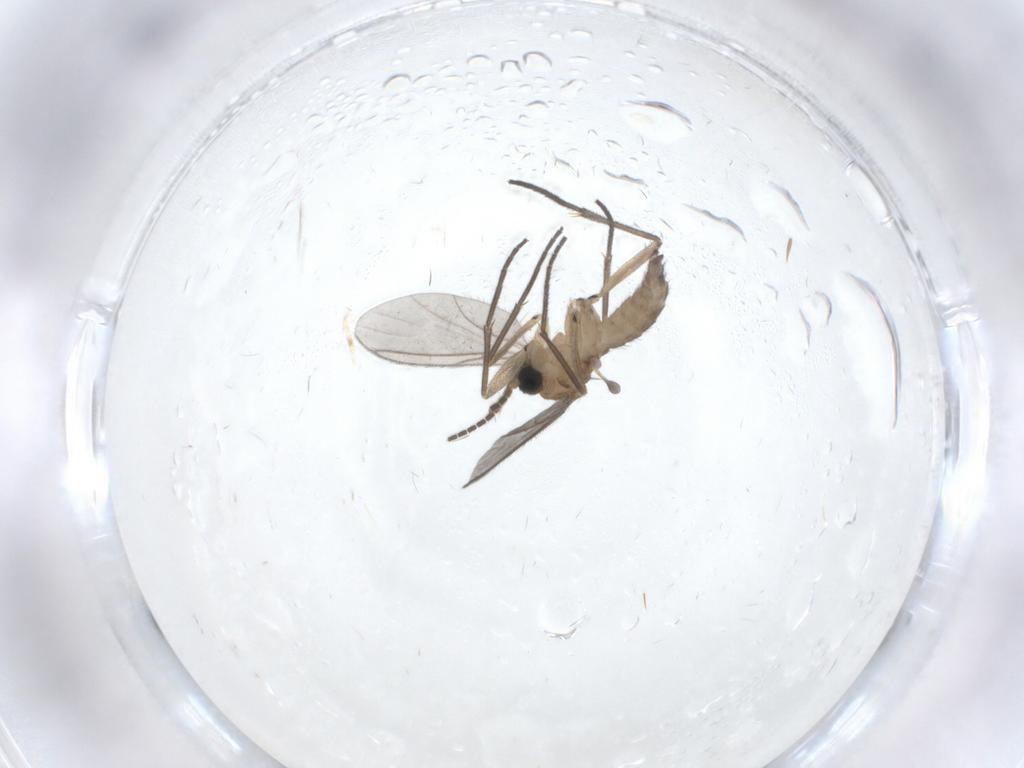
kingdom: Animalia
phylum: Arthropoda
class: Insecta
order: Diptera
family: Sciaridae
